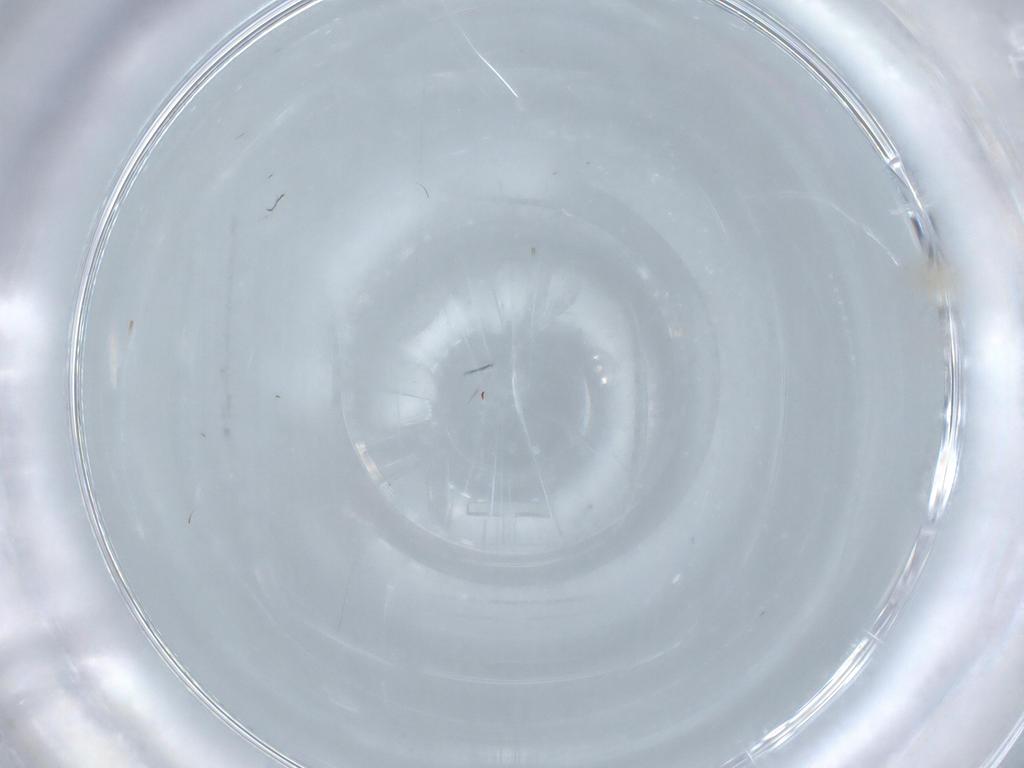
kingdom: Animalia
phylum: Arthropoda
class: Arachnida
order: Trombidiformes
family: Erythraeidae
